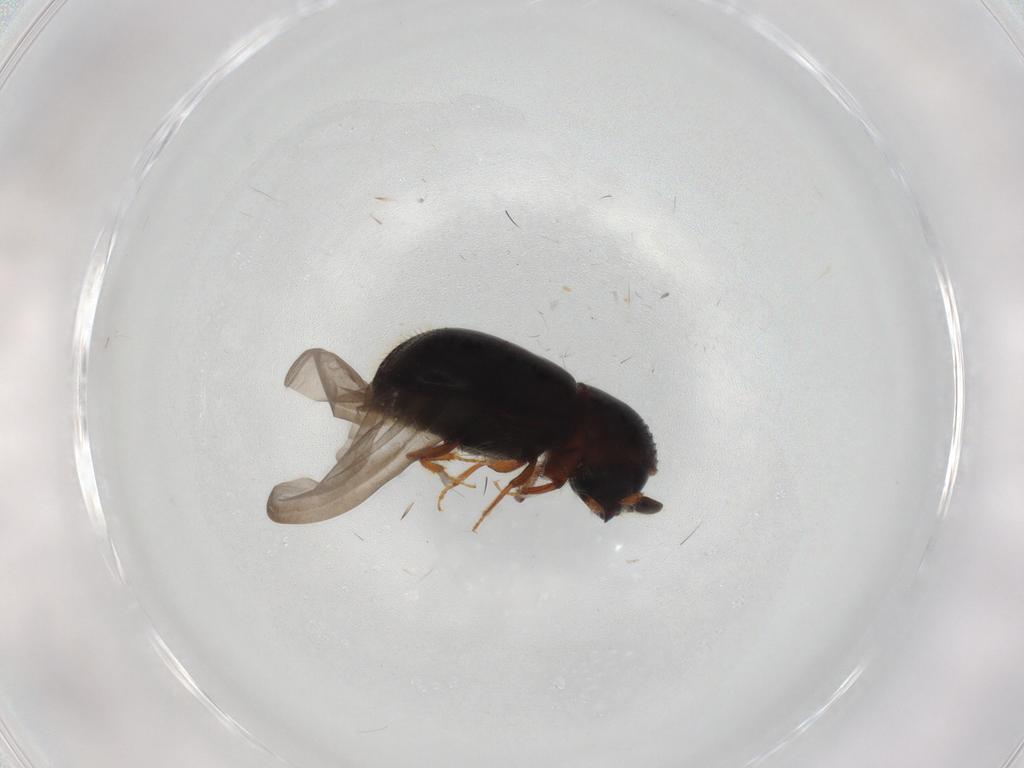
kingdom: Animalia
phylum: Arthropoda
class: Insecta
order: Coleoptera
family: Curculionidae
